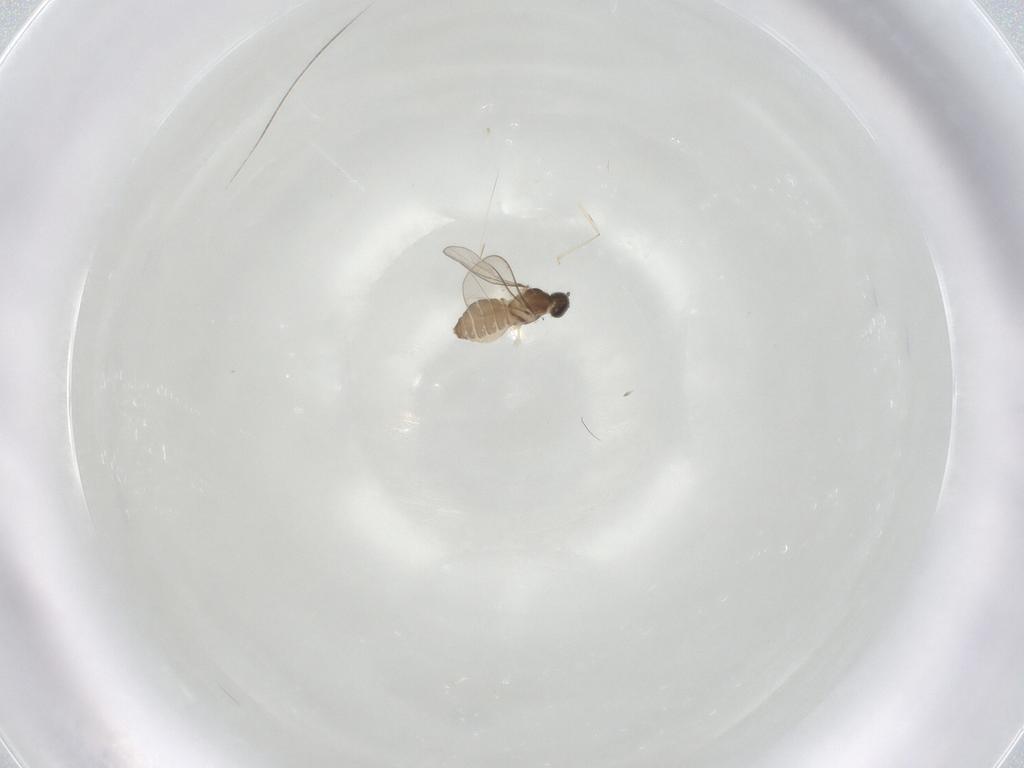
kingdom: Animalia
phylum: Arthropoda
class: Insecta
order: Diptera
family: Cecidomyiidae
